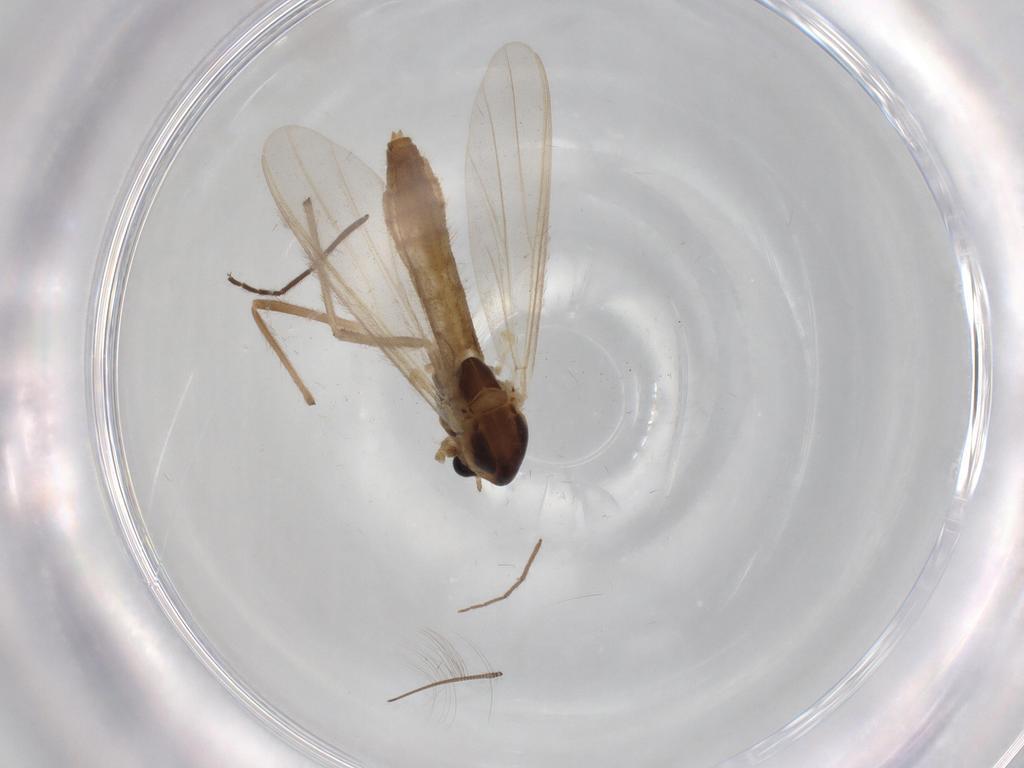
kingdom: Animalia
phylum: Arthropoda
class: Insecta
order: Diptera
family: Chironomidae
